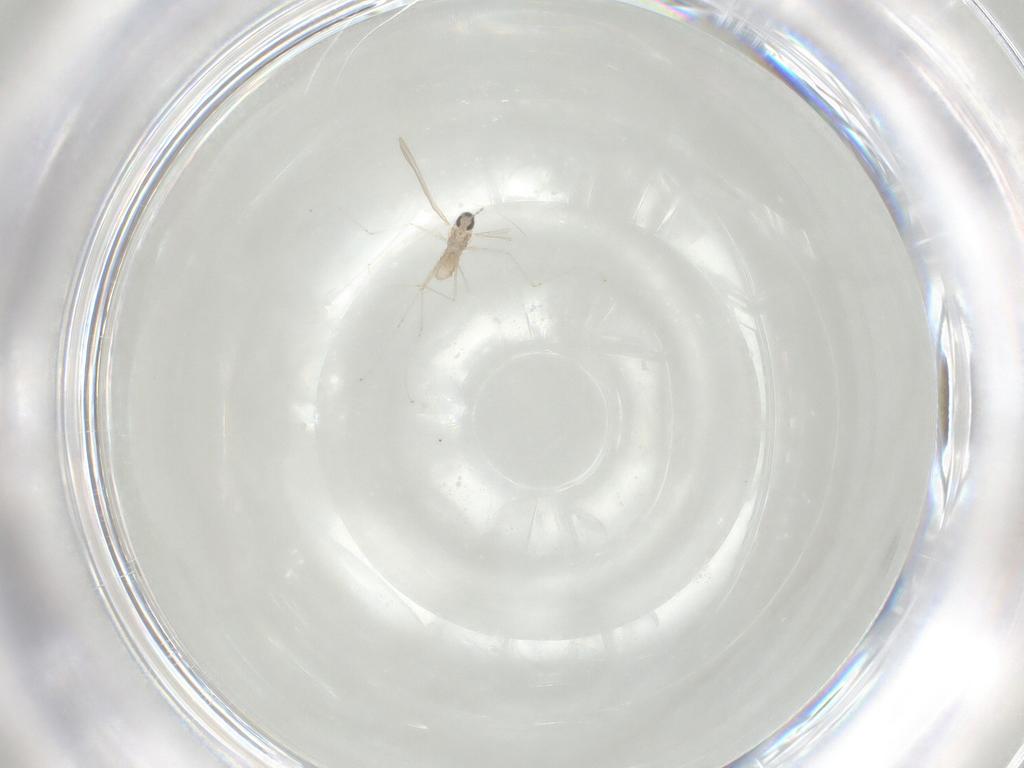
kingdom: Animalia
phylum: Arthropoda
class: Insecta
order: Diptera
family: Cecidomyiidae
